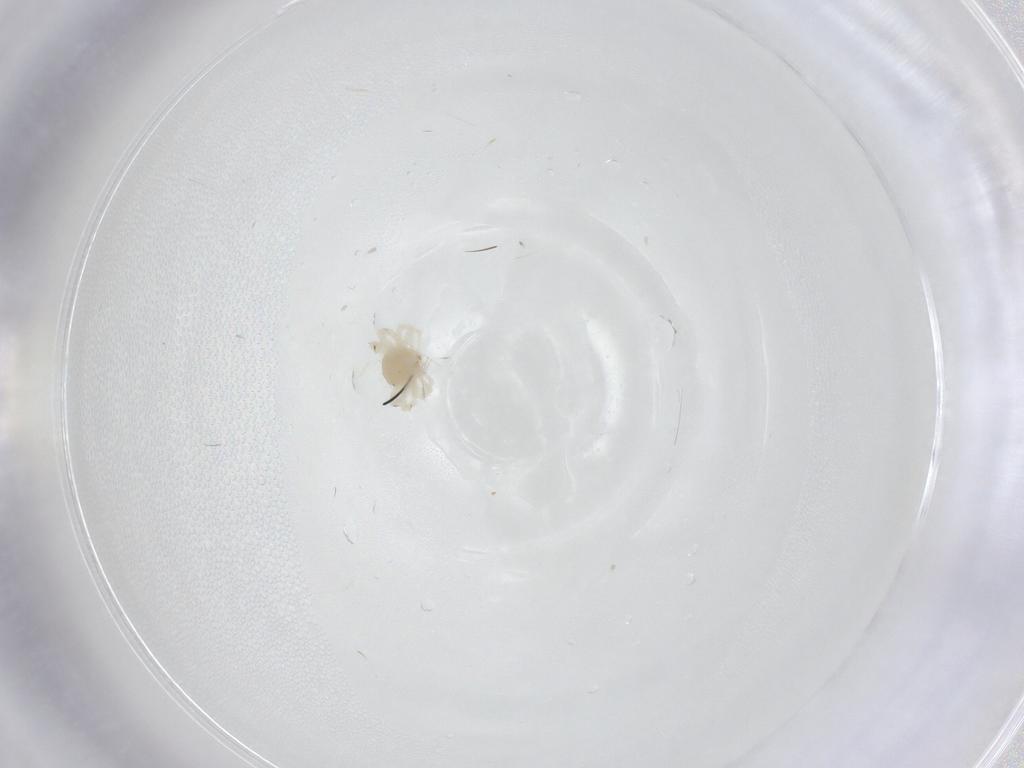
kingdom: Animalia
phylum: Arthropoda
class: Arachnida
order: Trombidiformes
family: Anystidae
